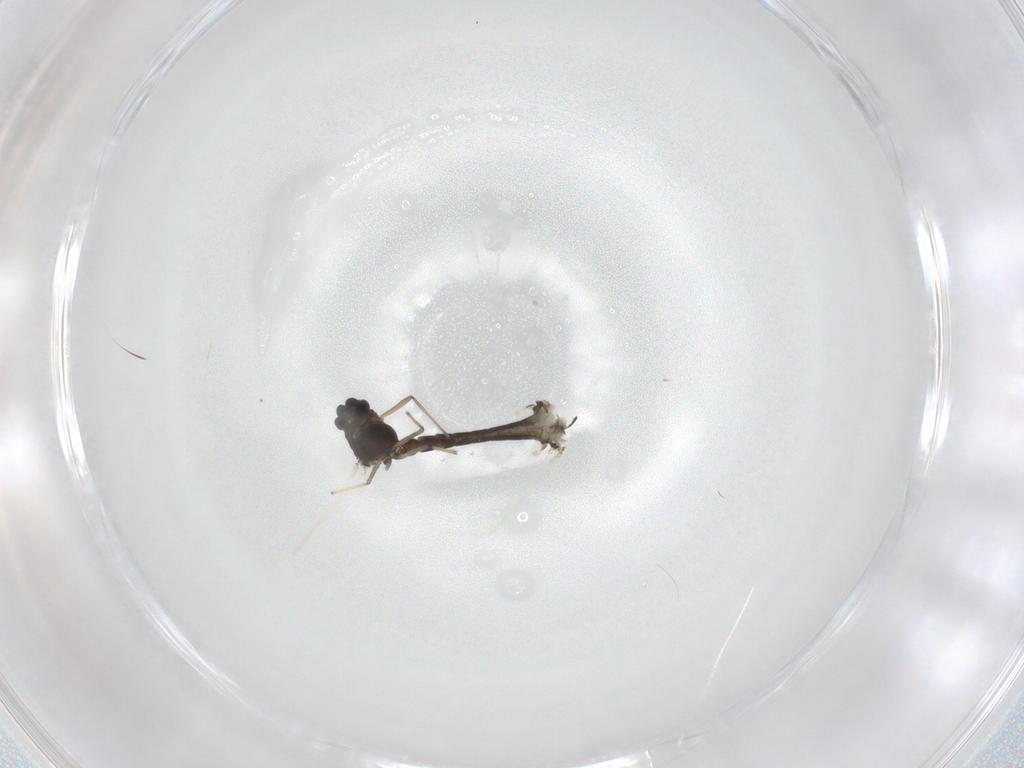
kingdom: Animalia
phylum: Arthropoda
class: Insecta
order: Diptera
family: Chironomidae
